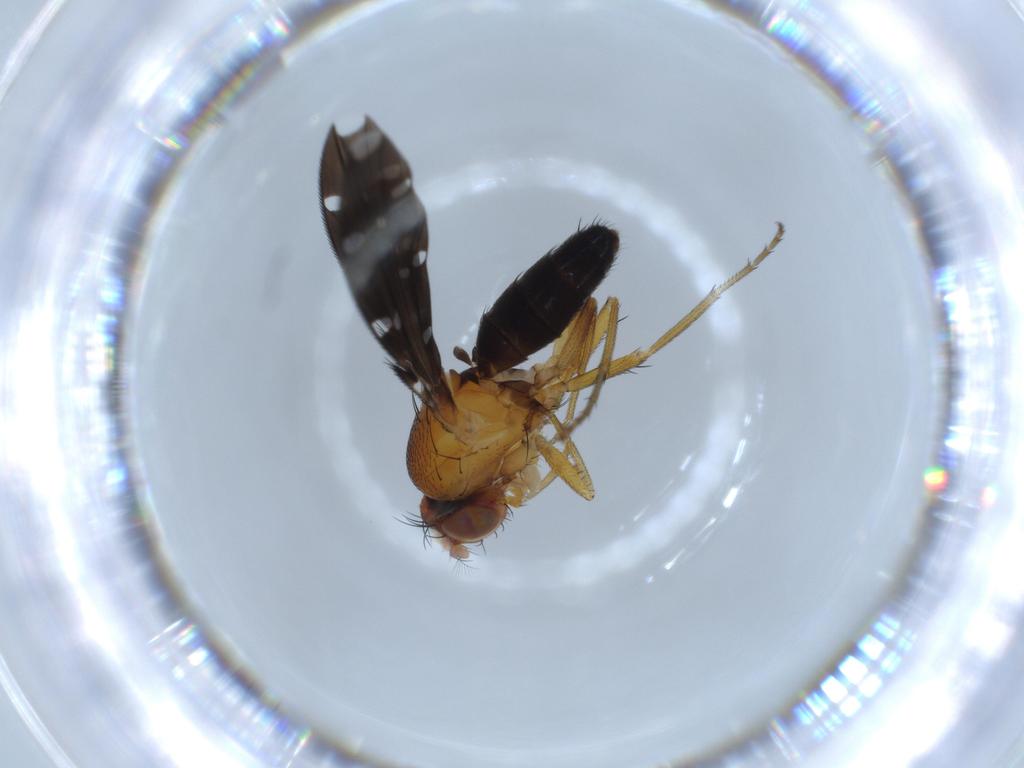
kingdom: Animalia
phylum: Arthropoda
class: Insecta
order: Diptera
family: Ephydridae
